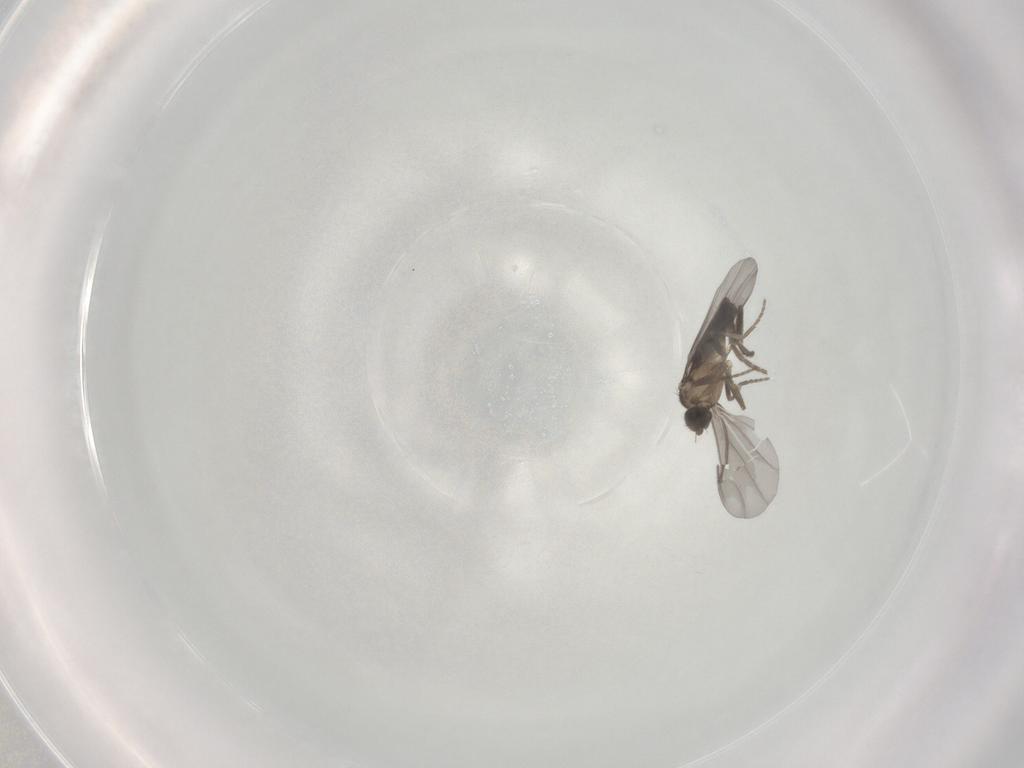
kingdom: Animalia
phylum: Arthropoda
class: Insecta
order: Diptera
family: Phoridae
